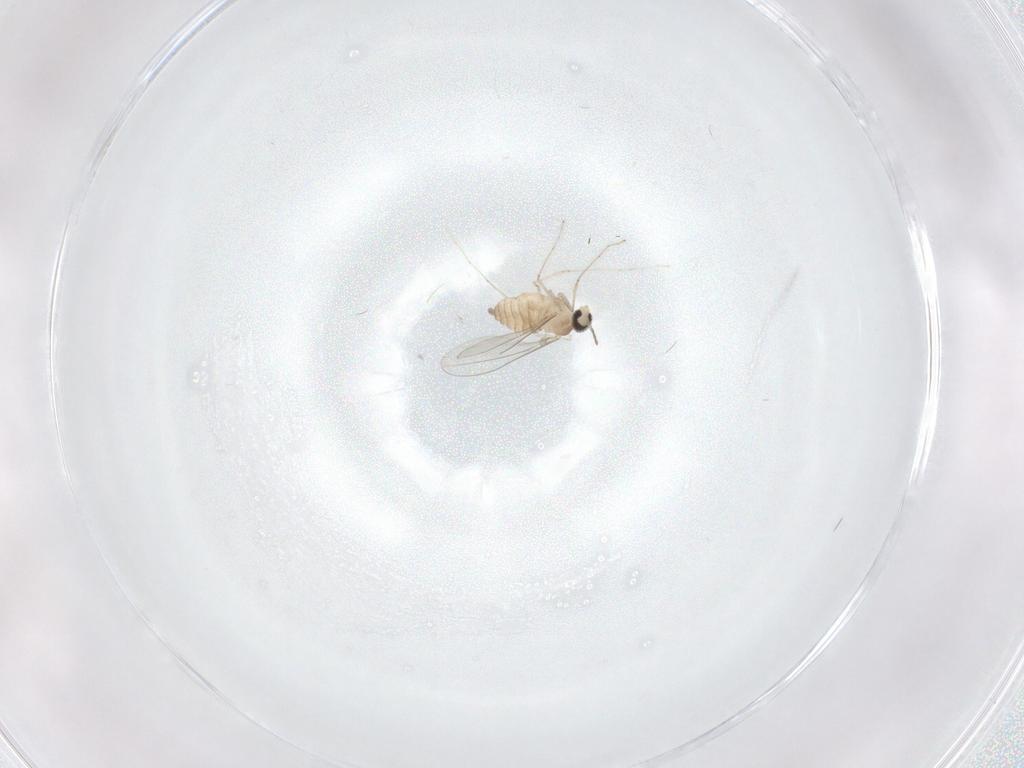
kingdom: Animalia
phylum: Arthropoda
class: Insecta
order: Diptera
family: Cecidomyiidae
